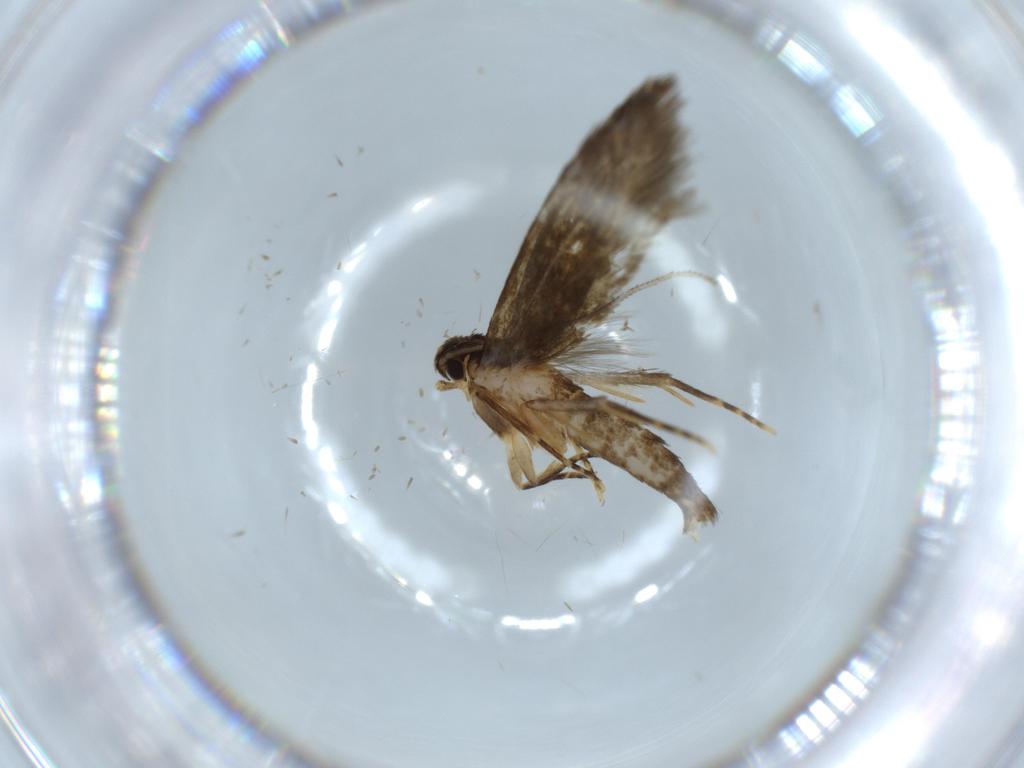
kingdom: Animalia
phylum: Arthropoda
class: Insecta
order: Lepidoptera
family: Tineidae
